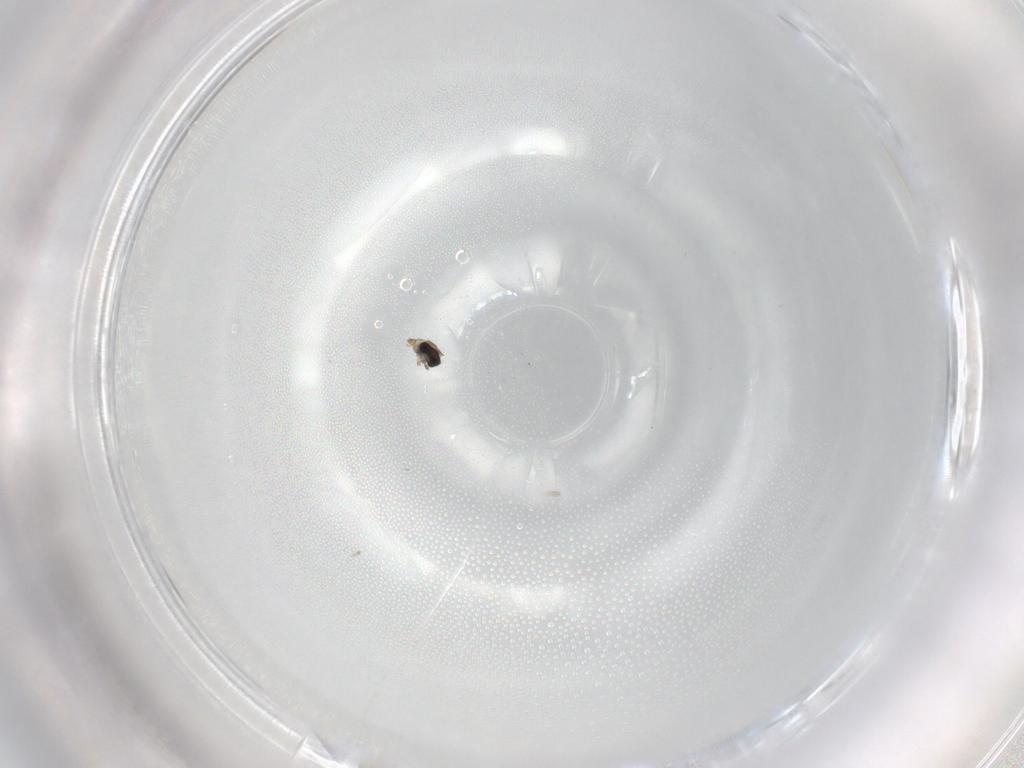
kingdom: Animalia
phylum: Arthropoda
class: Insecta
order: Diptera
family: Cecidomyiidae
